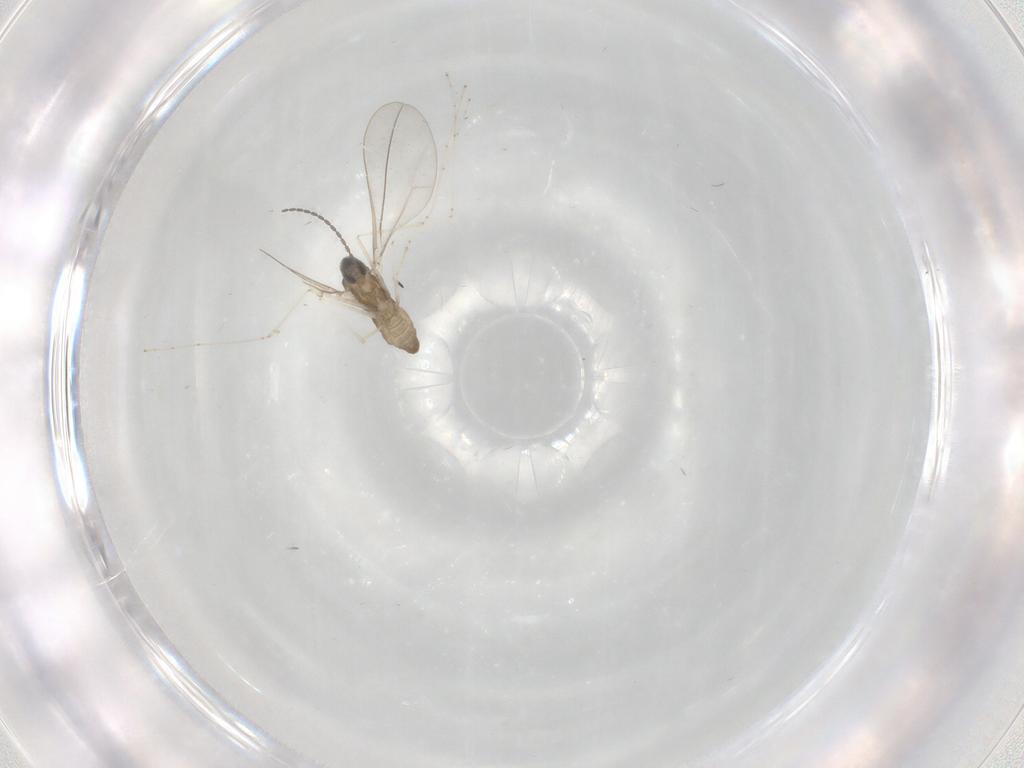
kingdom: Animalia
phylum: Arthropoda
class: Insecta
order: Diptera
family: Cecidomyiidae
